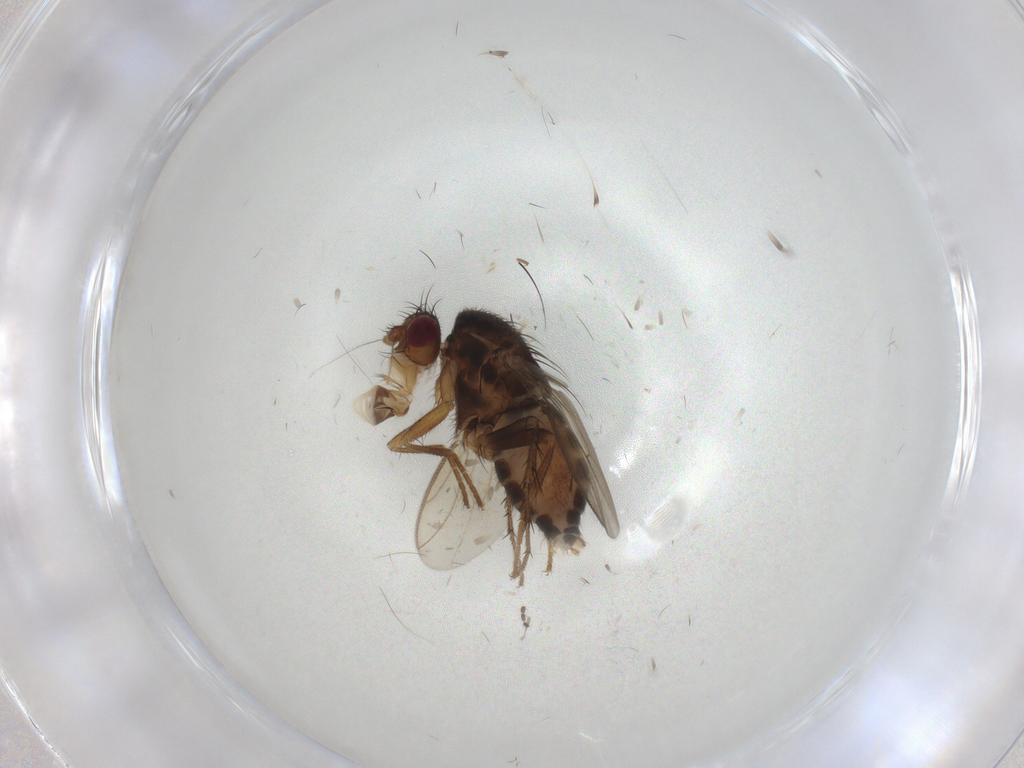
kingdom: Animalia
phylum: Arthropoda
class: Insecta
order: Diptera
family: Sphaeroceridae
